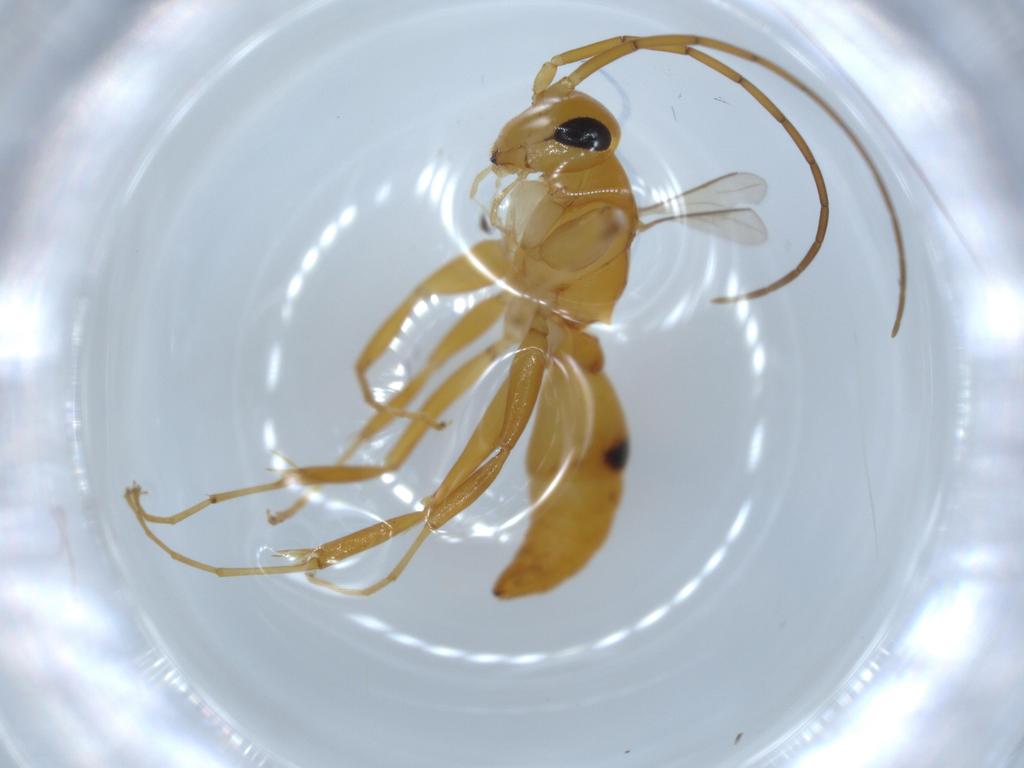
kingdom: Animalia
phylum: Arthropoda
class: Insecta
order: Hymenoptera
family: Rhopalosomatidae
